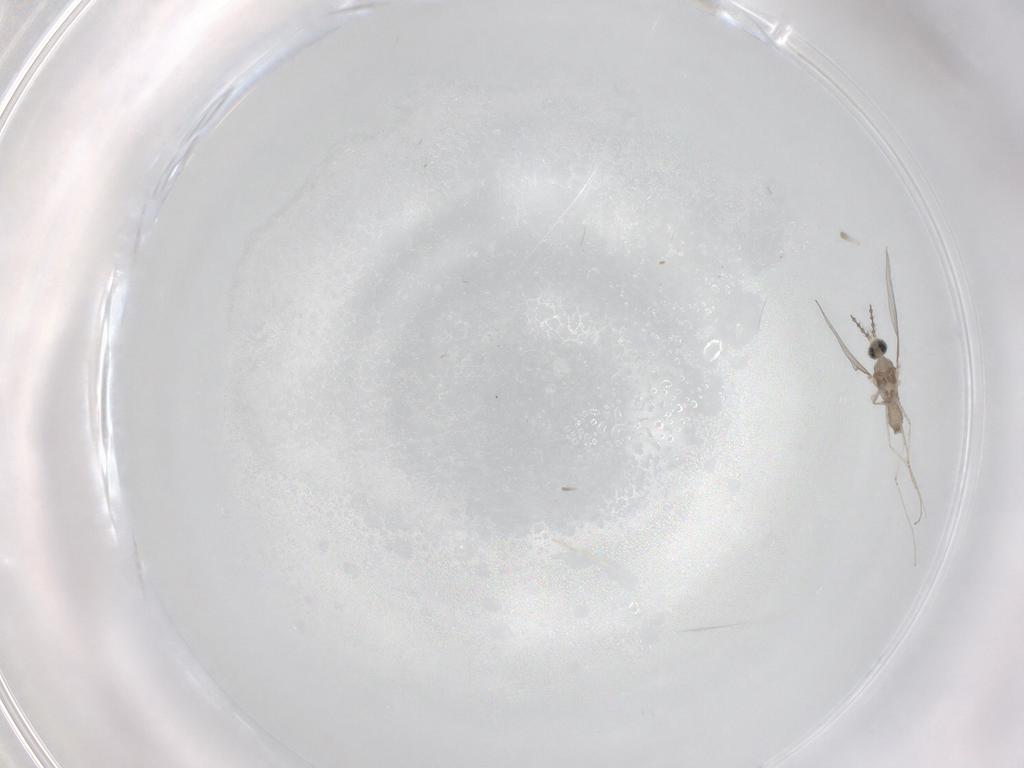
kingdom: Animalia
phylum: Arthropoda
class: Insecta
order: Diptera
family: Cecidomyiidae
